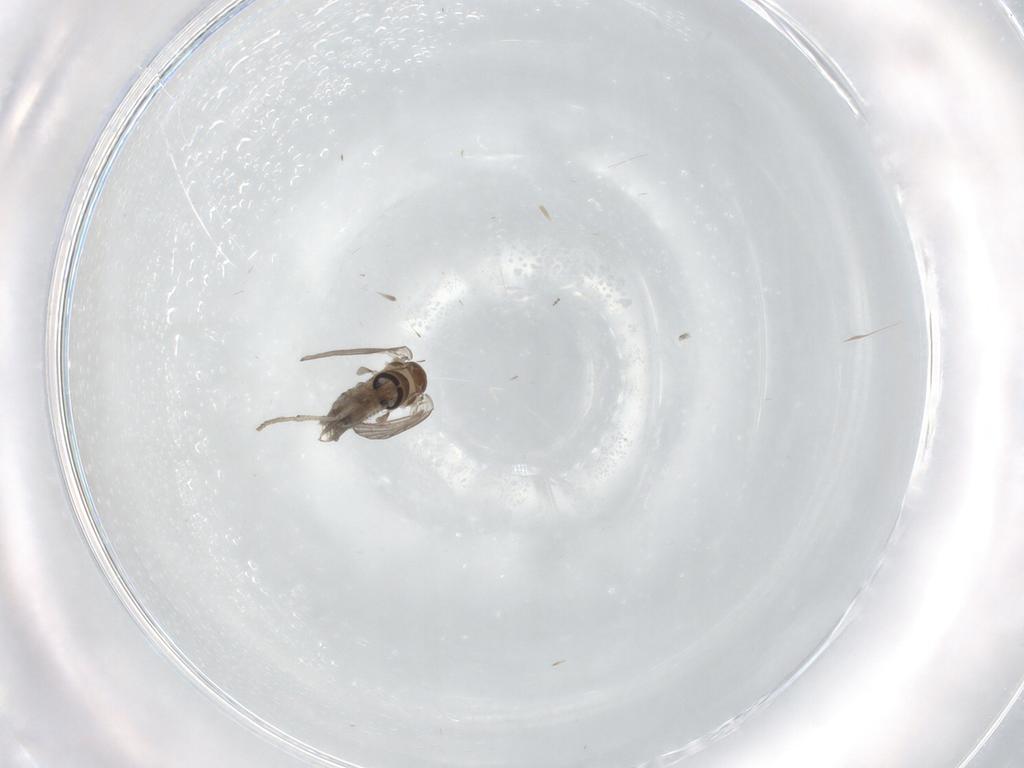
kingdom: Animalia
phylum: Arthropoda
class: Insecta
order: Diptera
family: Psychodidae
